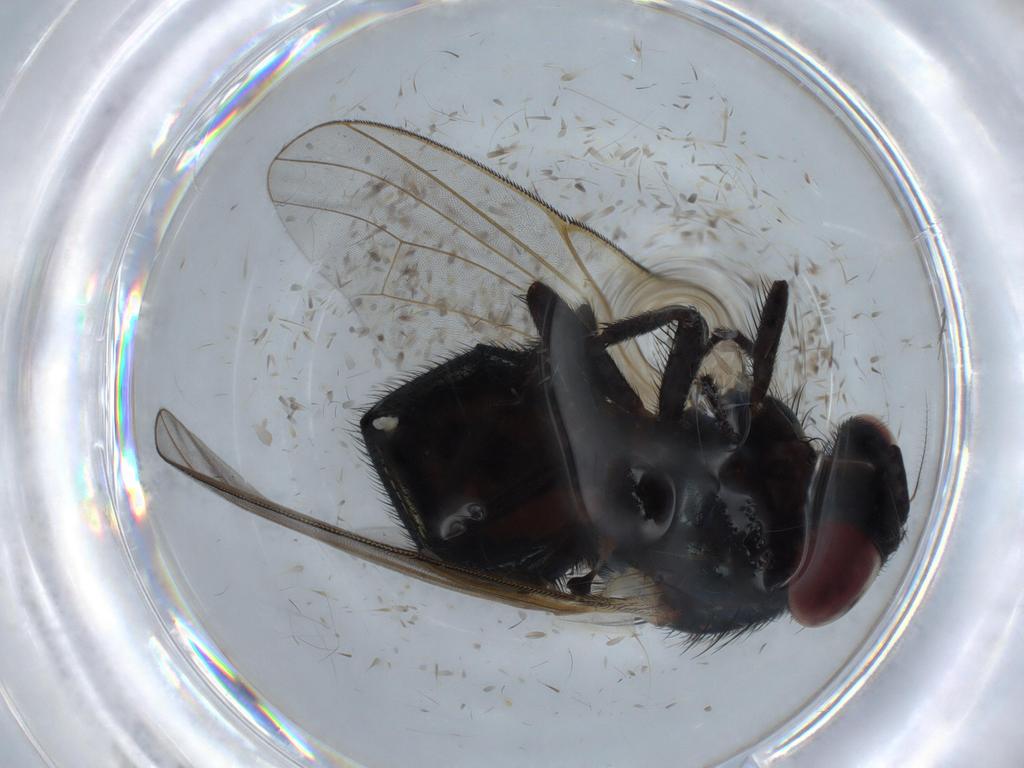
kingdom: Animalia
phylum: Arthropoda
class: Insecta
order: Diptera
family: Lonchaeidae
